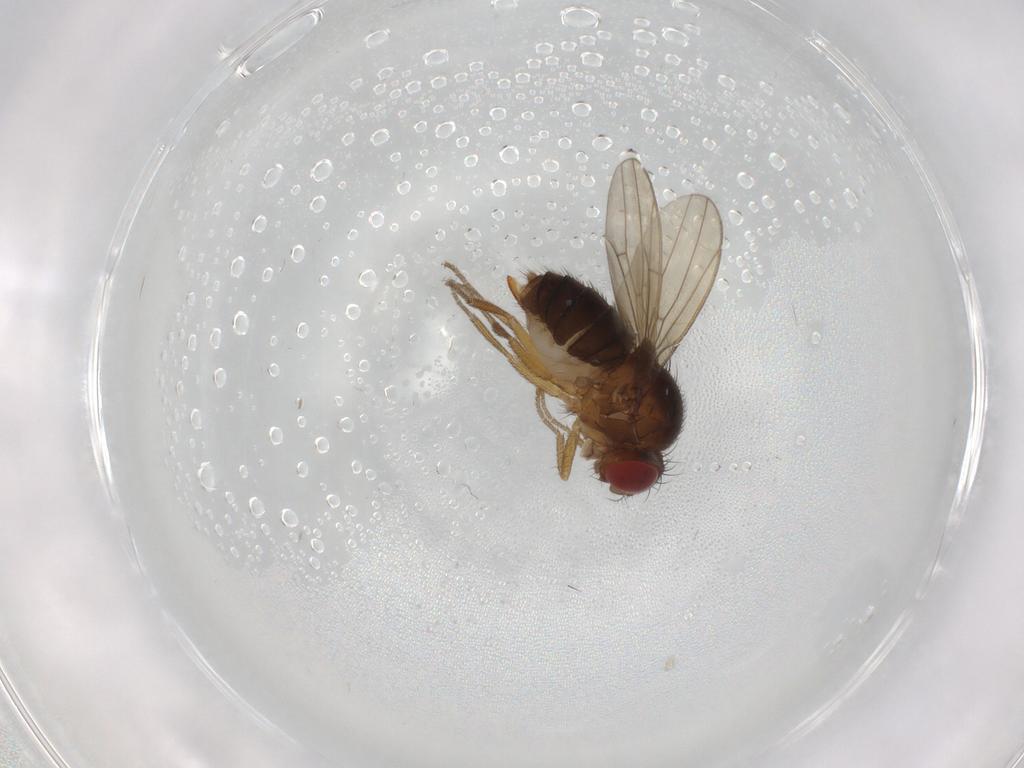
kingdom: Animalia
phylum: Arthropoda
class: Insecta
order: Diptera
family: Drosophilidae
